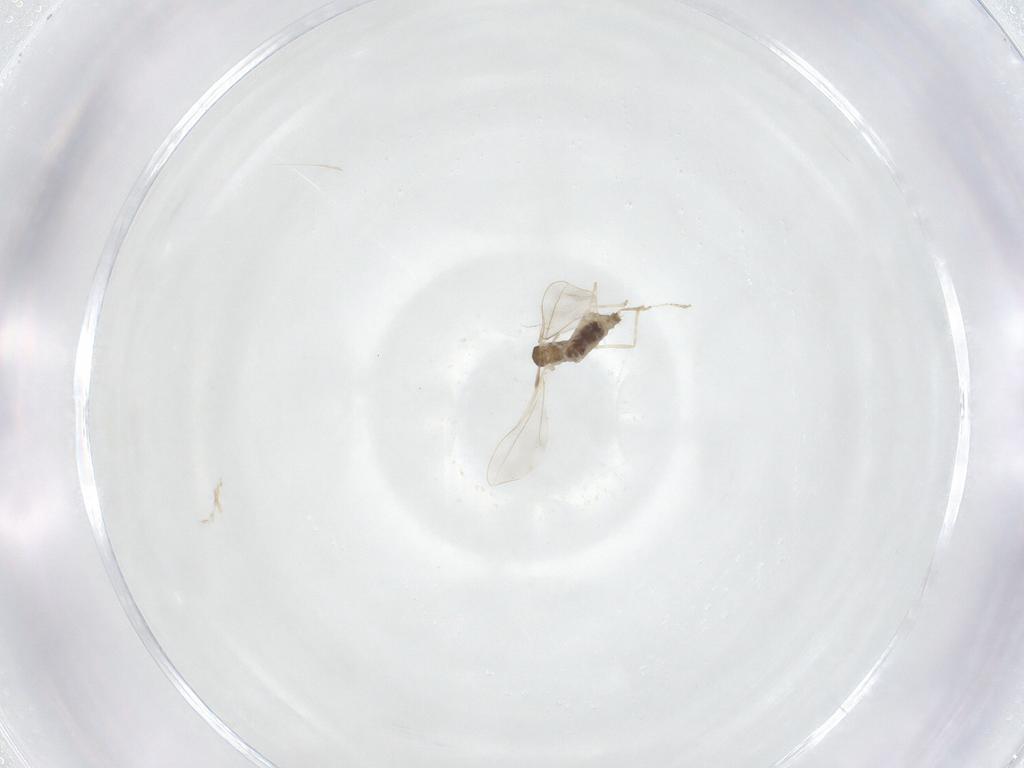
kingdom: Animalia
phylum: Arthropoda
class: Insecta
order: Diptera
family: Cecidomyiidae
